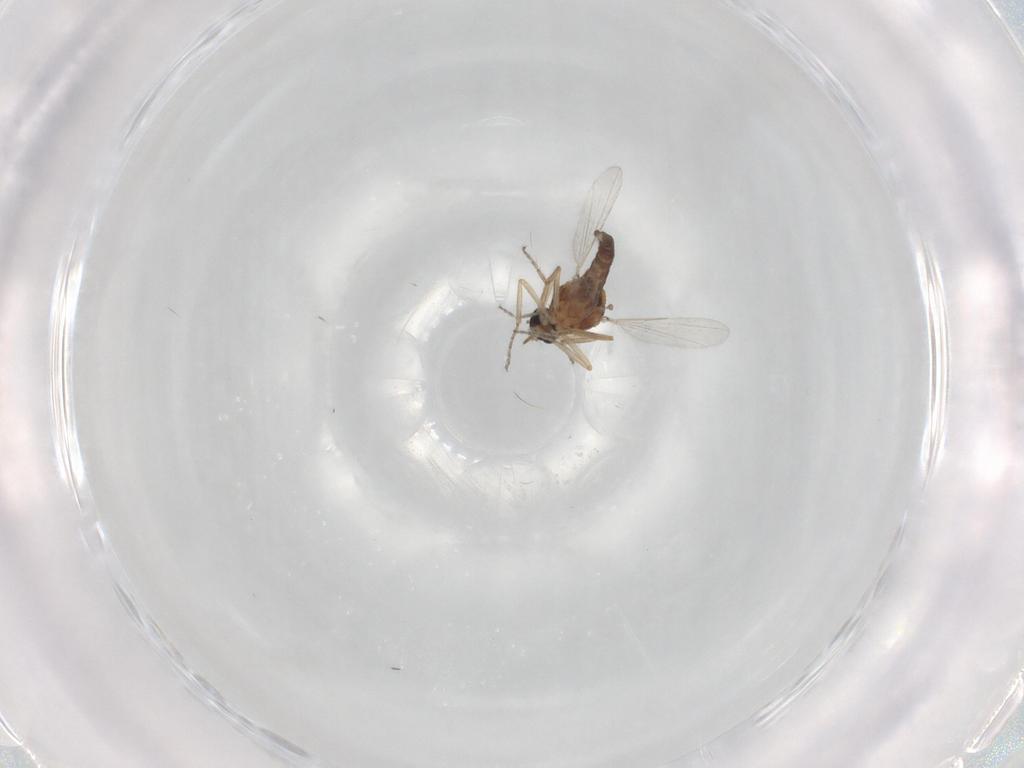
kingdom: Animalia
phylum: Arthropoda
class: Insecta
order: Diptera
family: Ceratopogonidae
